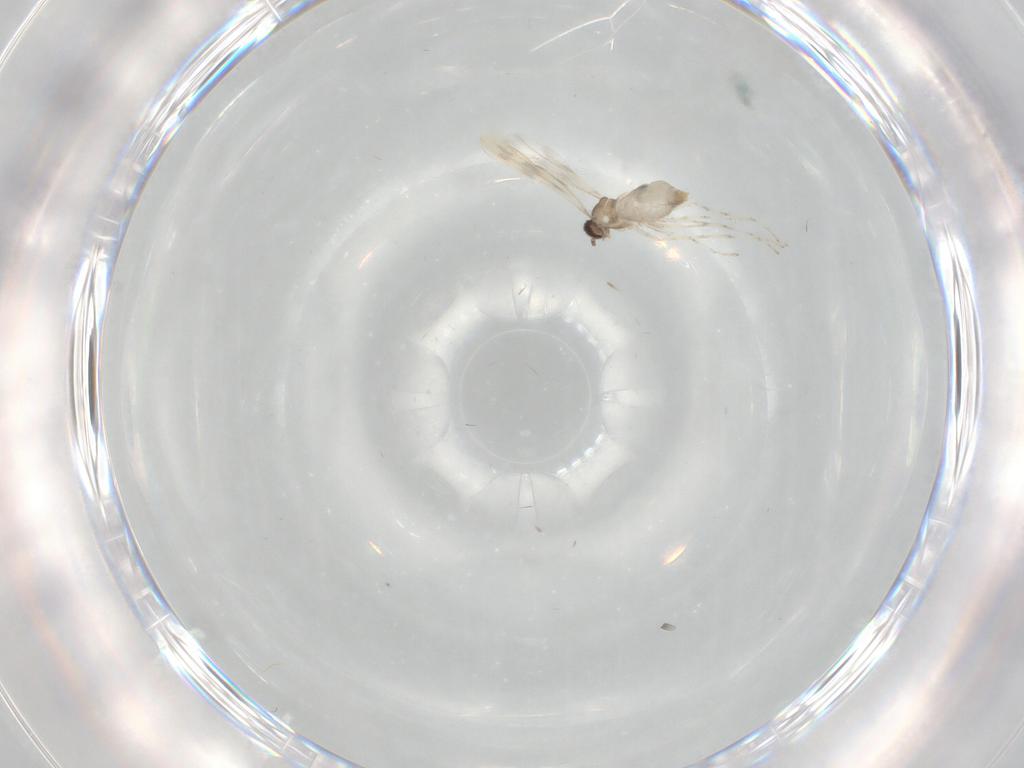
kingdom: Animalia
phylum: Arthropoda
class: Insecta
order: Diptera
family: Cecidomyiidae
